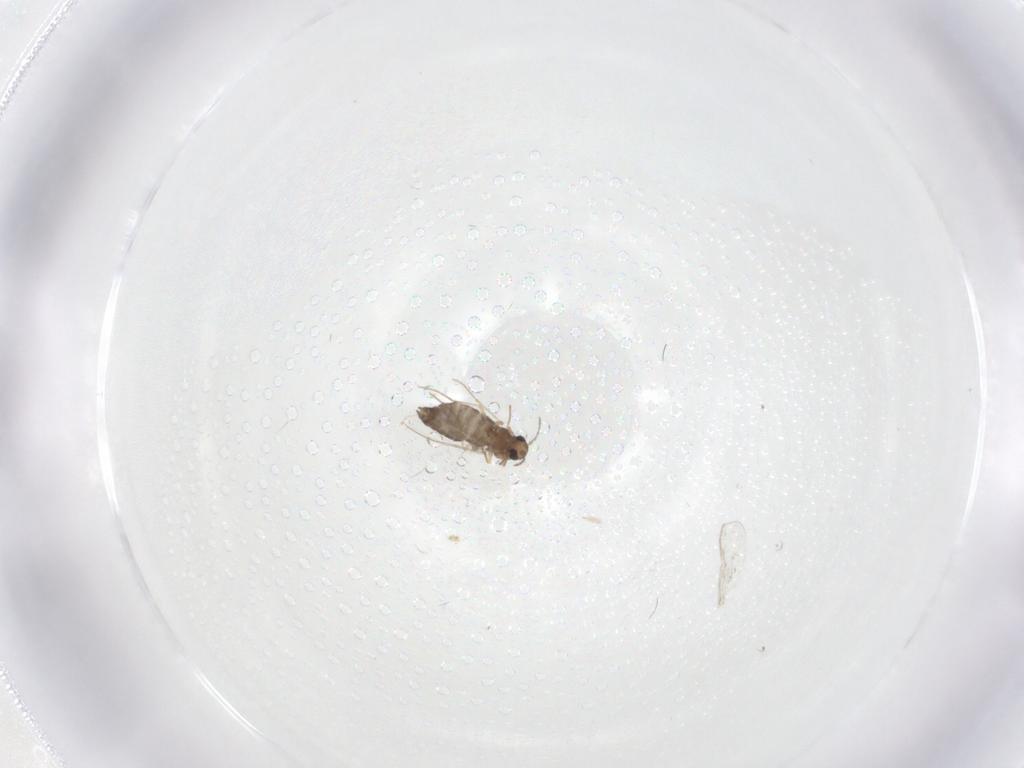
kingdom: Animalia
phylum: Arthropoda
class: Insecta
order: Diptera
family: Chironomidae
